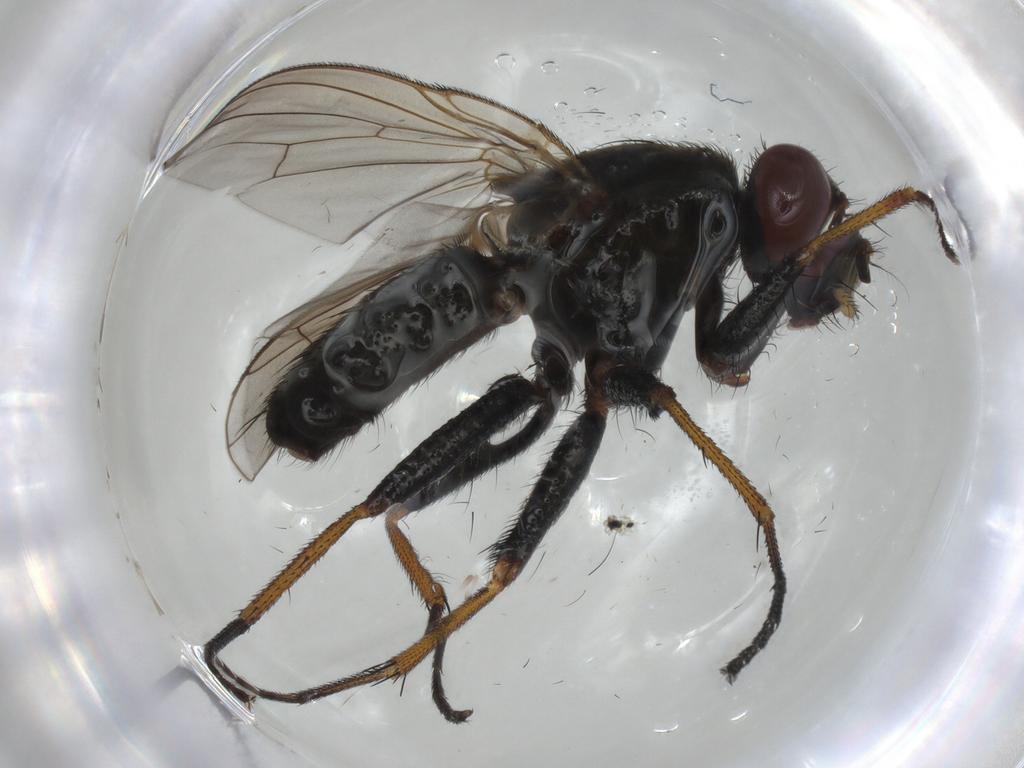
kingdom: Animalia
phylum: Arthropoda
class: Insecta
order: Diptera
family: Muscidae
